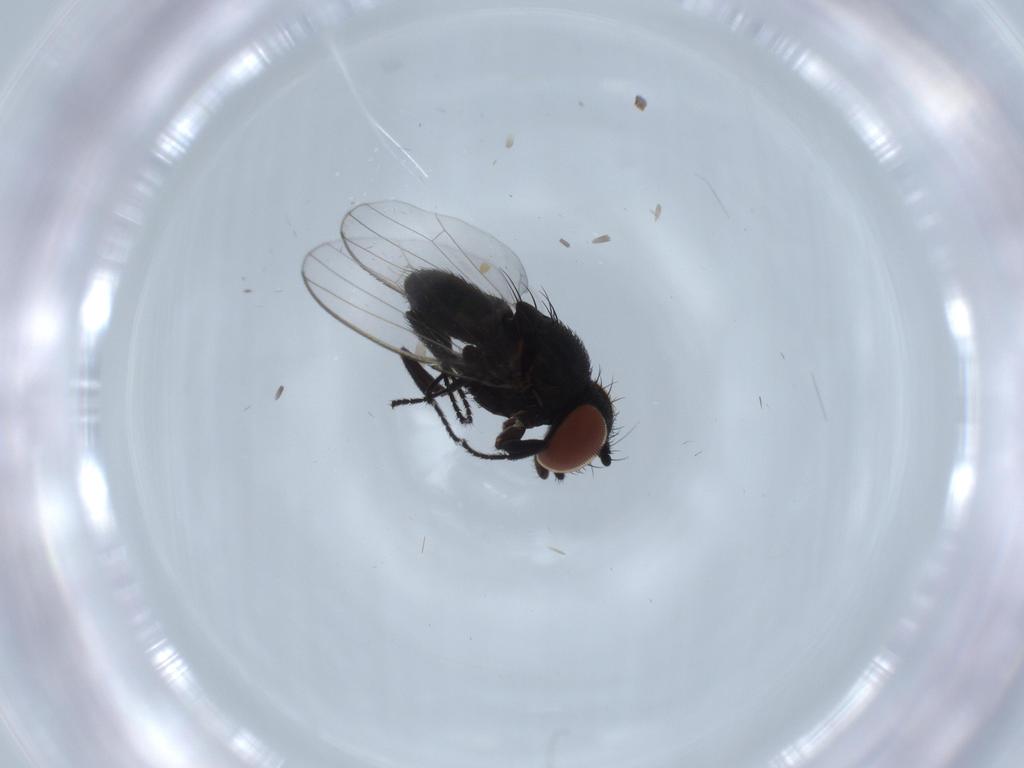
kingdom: Animalia
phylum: Arthropoda
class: Insecta
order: Diptera
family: Milichiidae
